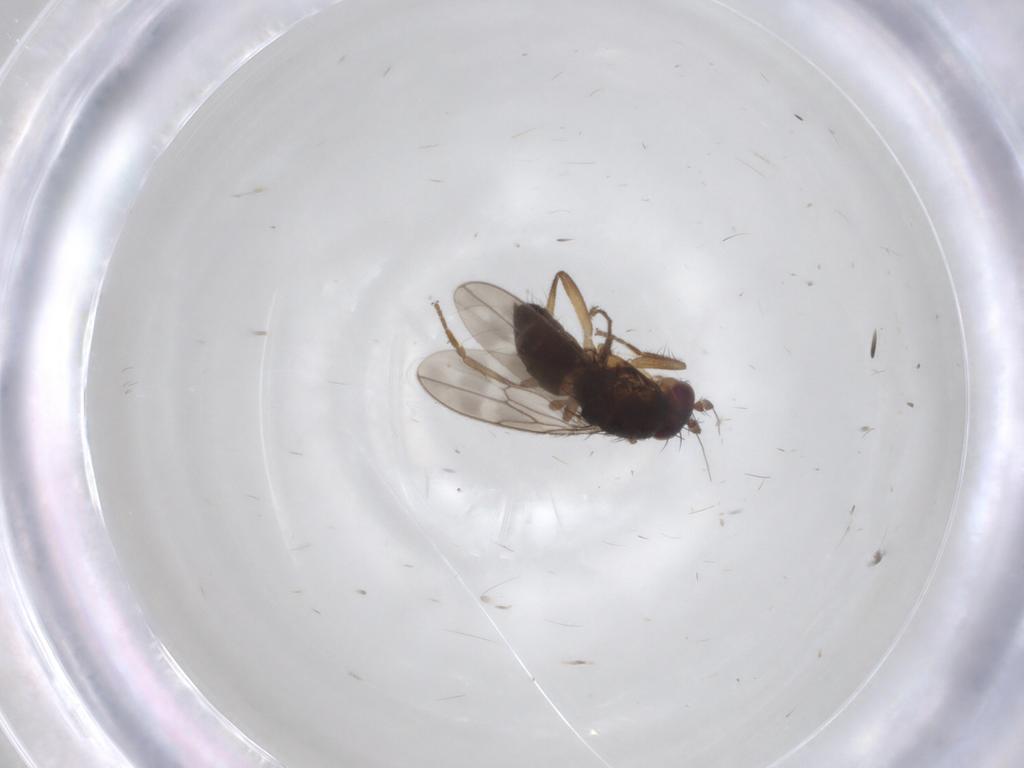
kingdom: Animalia
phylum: Arthropoda
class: Insecta
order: Diptera
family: Sphaeroceridae
